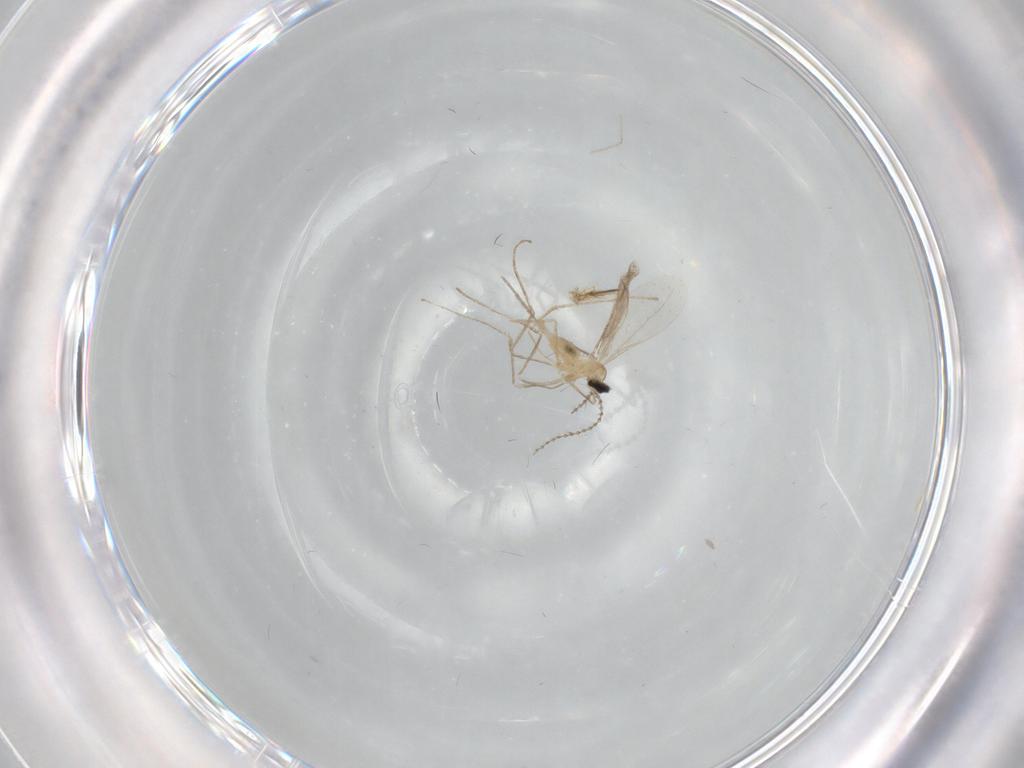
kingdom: Animalia
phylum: Arthropoda
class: Insecta
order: Diptera
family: Cecidomyiidae
